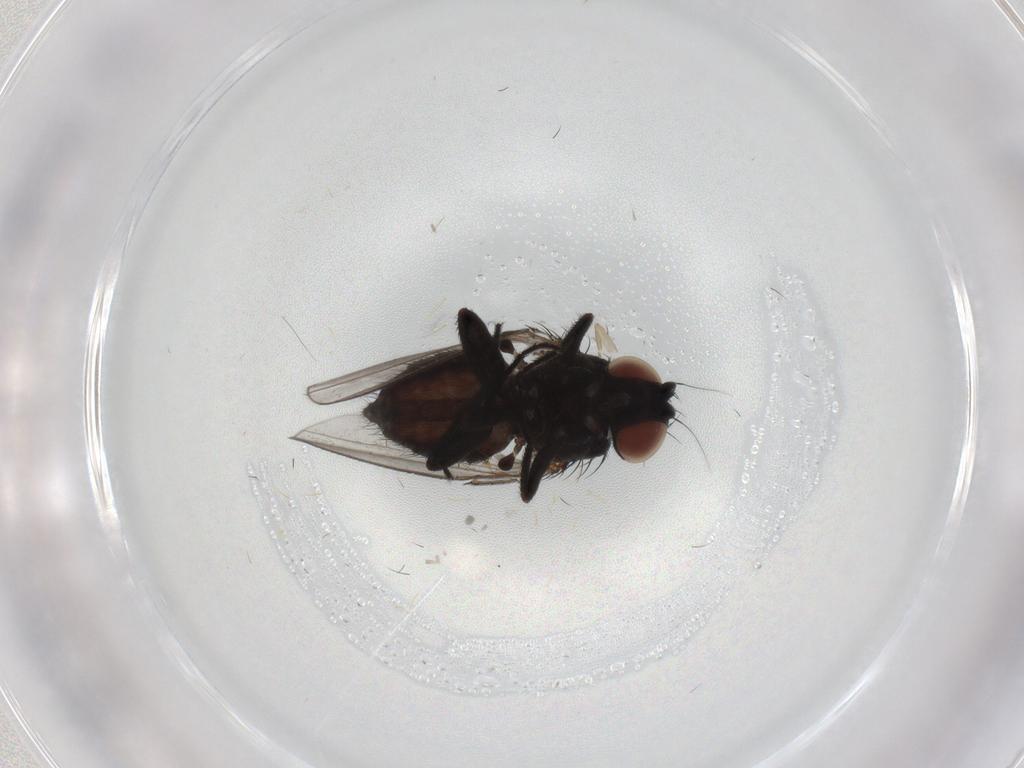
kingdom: Animalia
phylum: Arthropoda
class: Insecta
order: Diptera
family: Milichiidae
